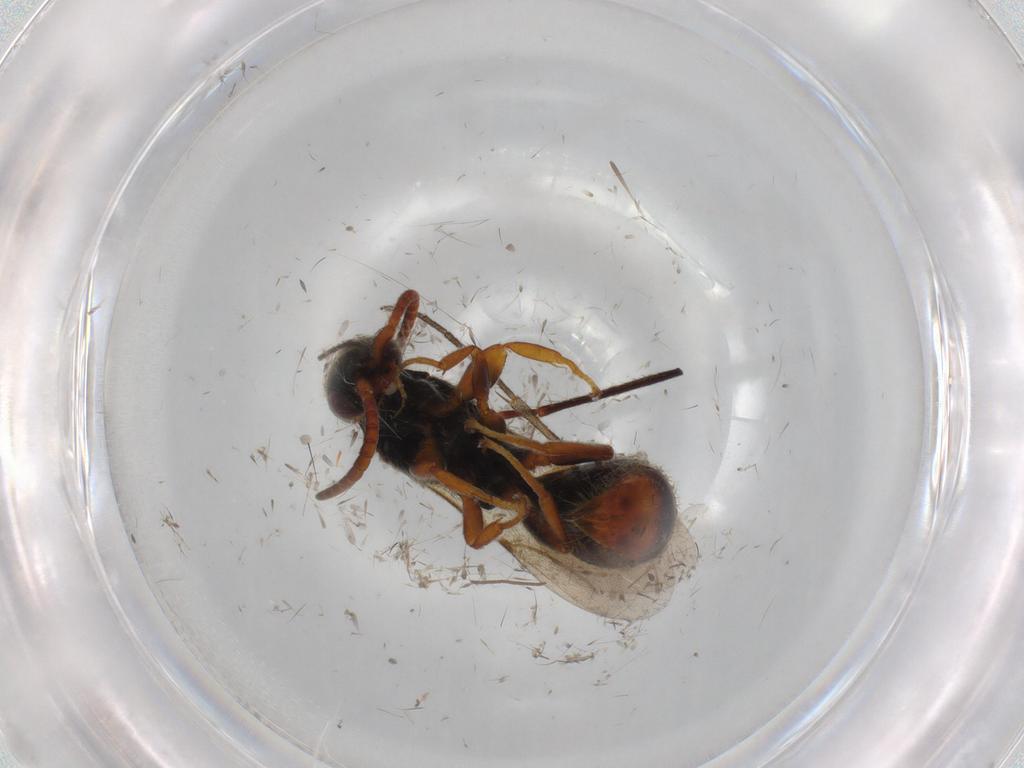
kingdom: Animalia
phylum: Arthropoda
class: Insecta
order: Hymenoptera
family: Bethylidae
